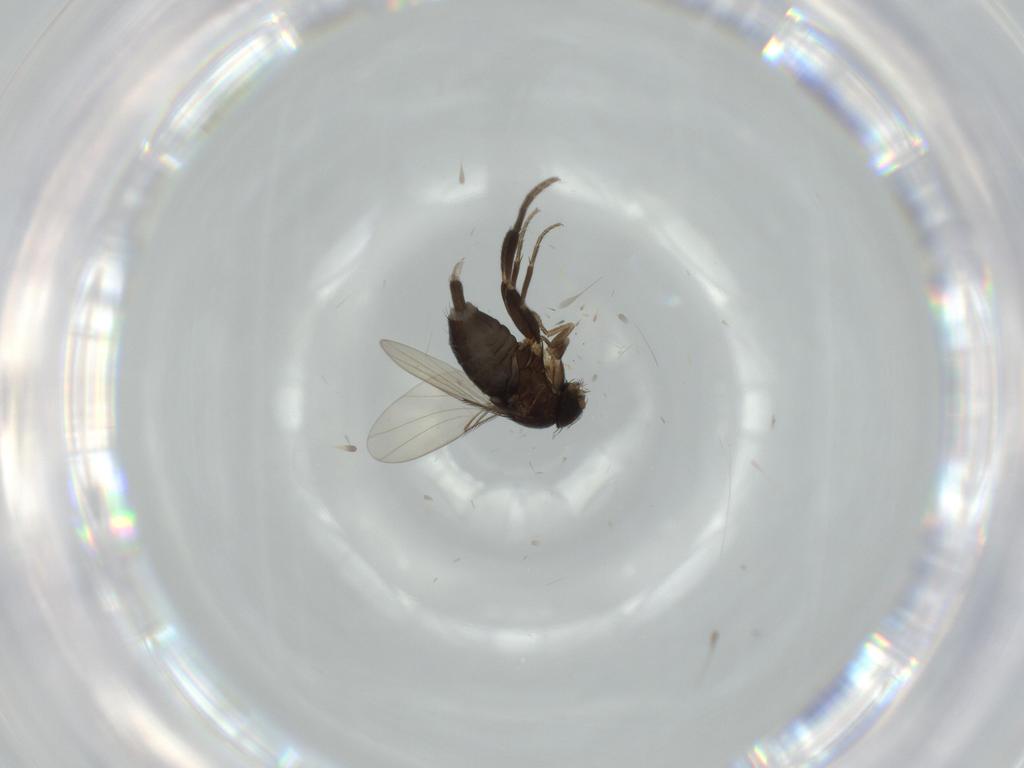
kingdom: Animalia
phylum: Arthropoda
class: Insecta
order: Diptera
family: Phoridae
